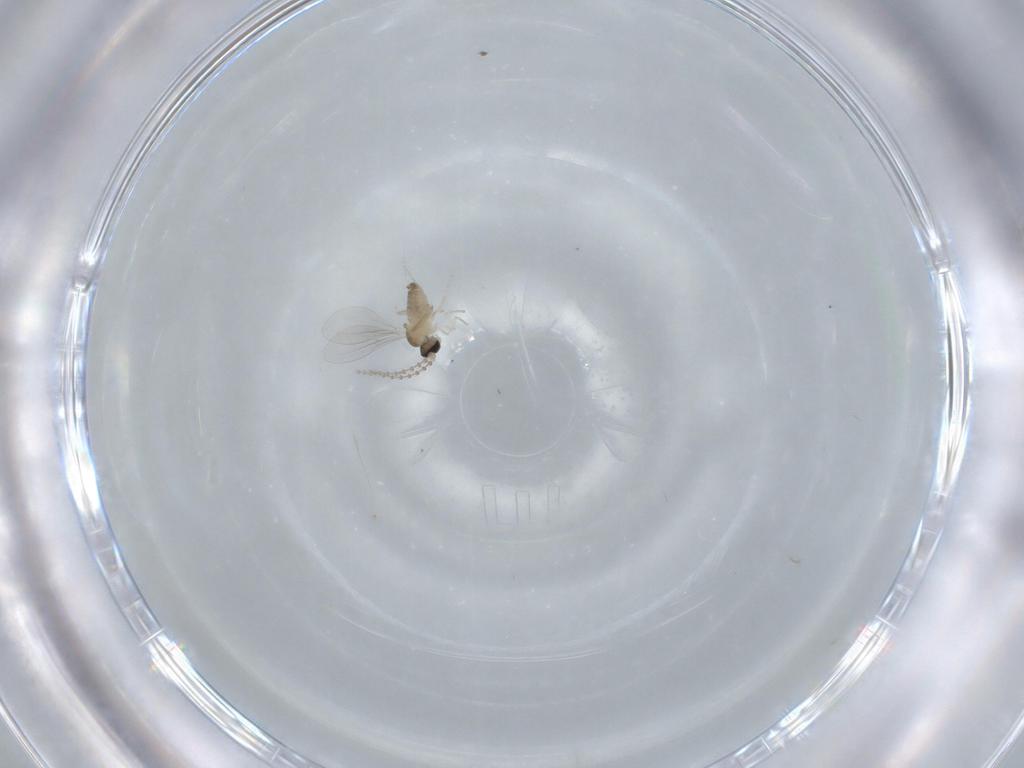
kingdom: Animalia
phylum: Arthropoda
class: Insecta
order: Diptera
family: Cecidomyiidae
